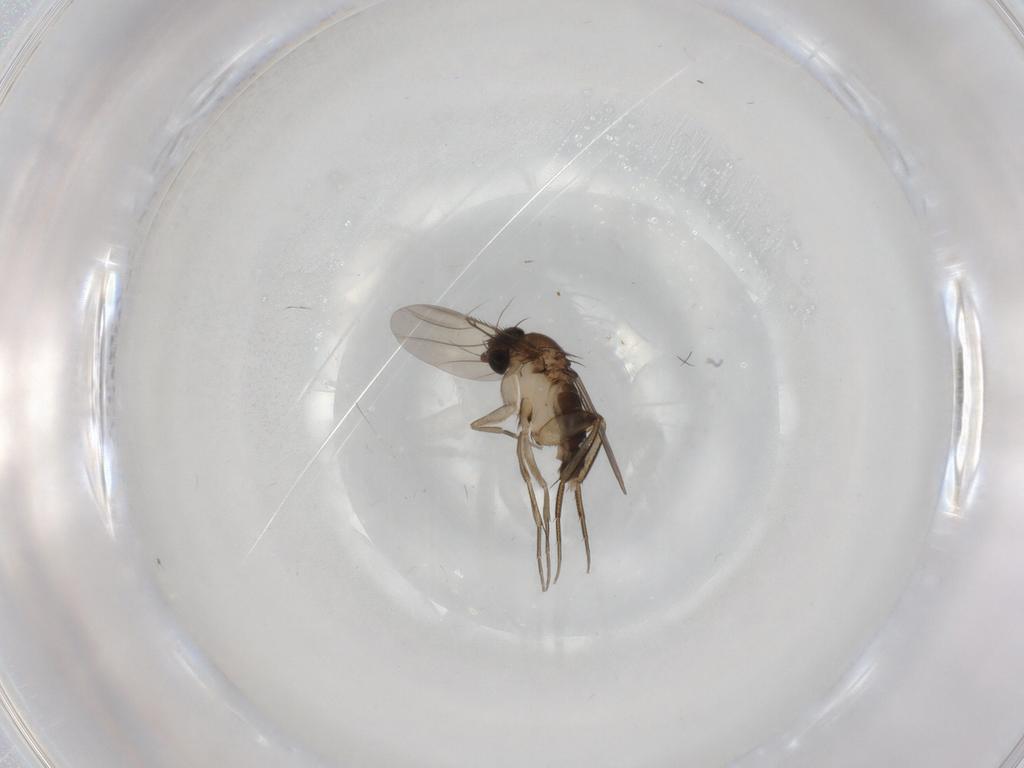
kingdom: Animalia
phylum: Arthropoda
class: Insecta
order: Diptera
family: Phoridae
